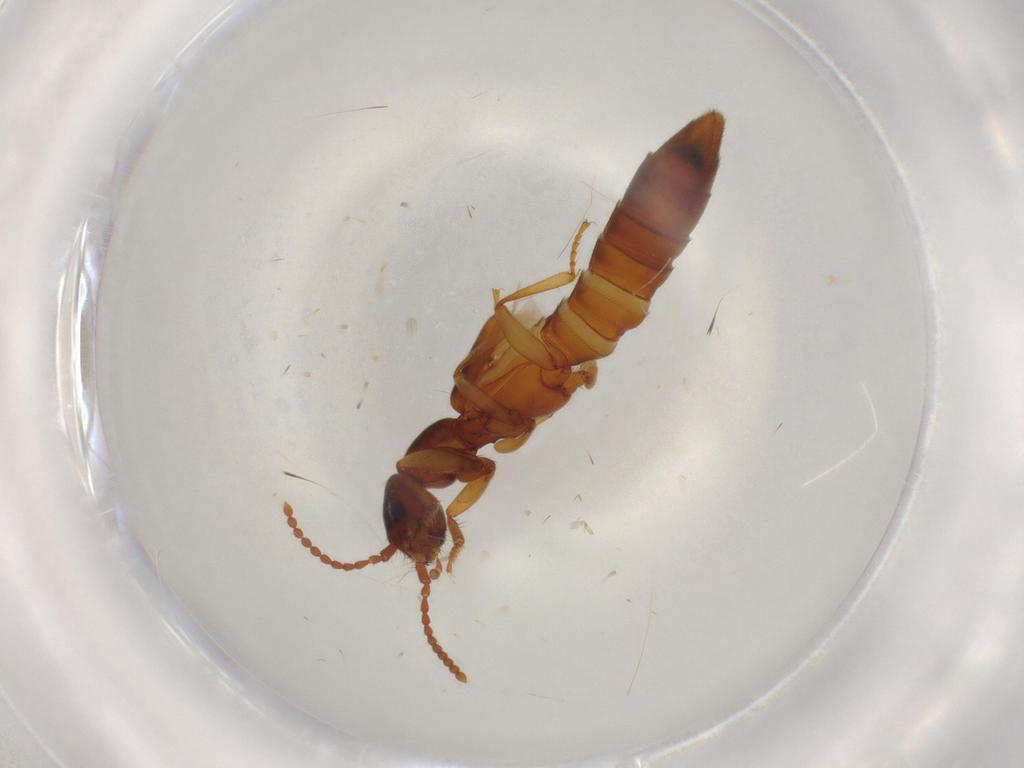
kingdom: Animalia
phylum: Arthropoda
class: Insecta
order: Coleoptera
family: Staphylinidae
